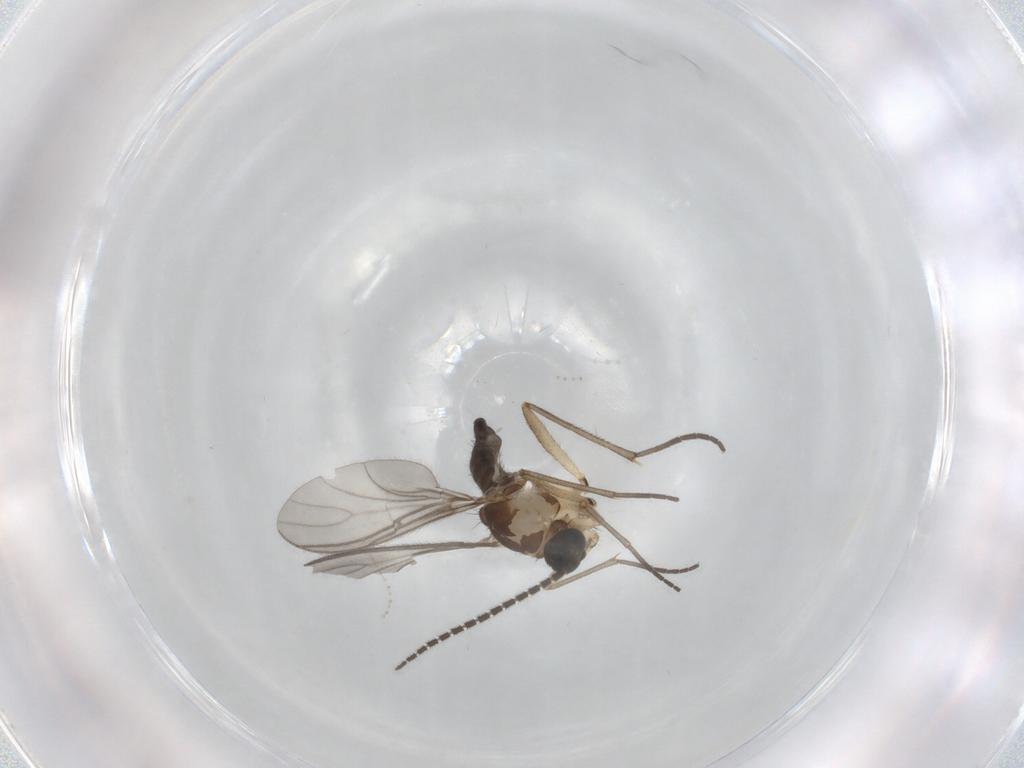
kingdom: Animalia
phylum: Arthropoda
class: Insecta
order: Diptera
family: Sciaridae
